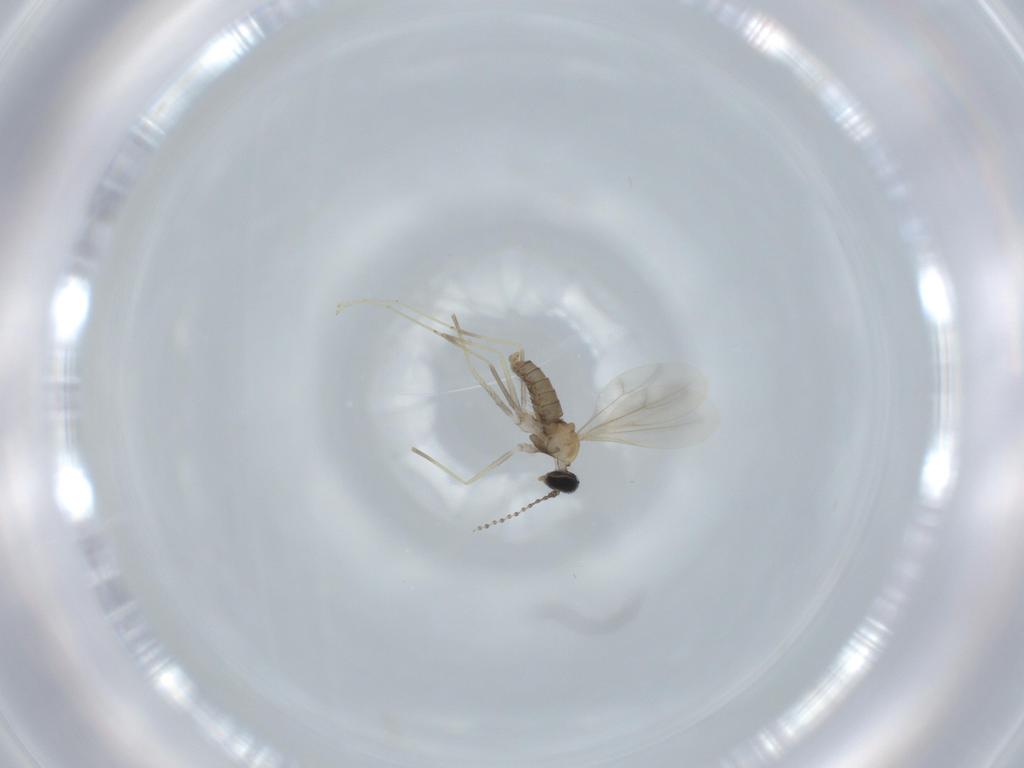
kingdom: Animalia
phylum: Arthropoda
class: Insecta
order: Diptera
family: Cecidomyiidae
